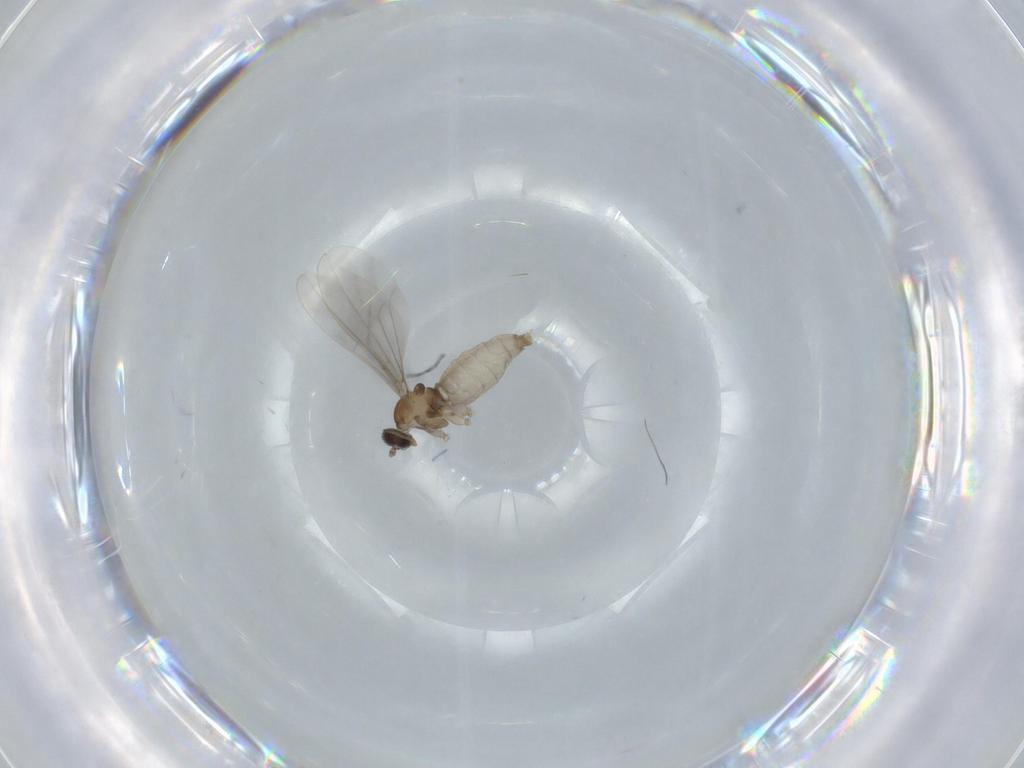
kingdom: Animalia
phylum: Arthropoda
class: Insecta
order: Diptera
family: Cecidomyiidae
